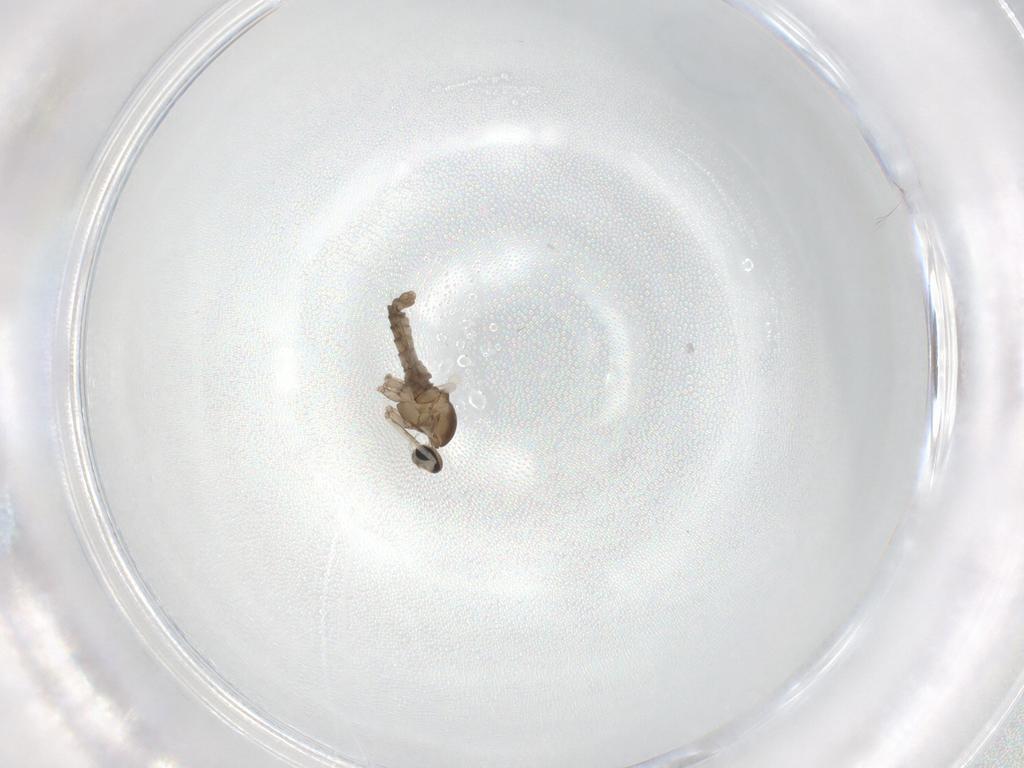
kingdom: Animalia
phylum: Arthropoda
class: Insecta
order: Diptera
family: Cecidomyiidae
